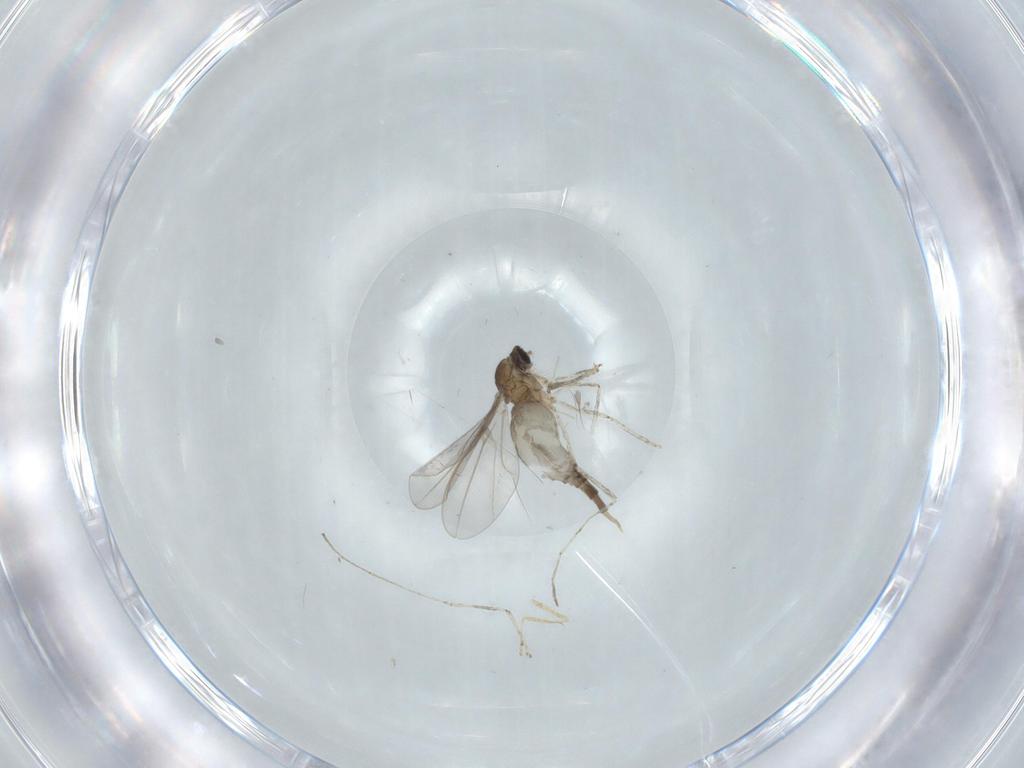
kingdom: Animalia
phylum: Arthropoda
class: Insecta
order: Diptera
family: Cecidomyiidae
